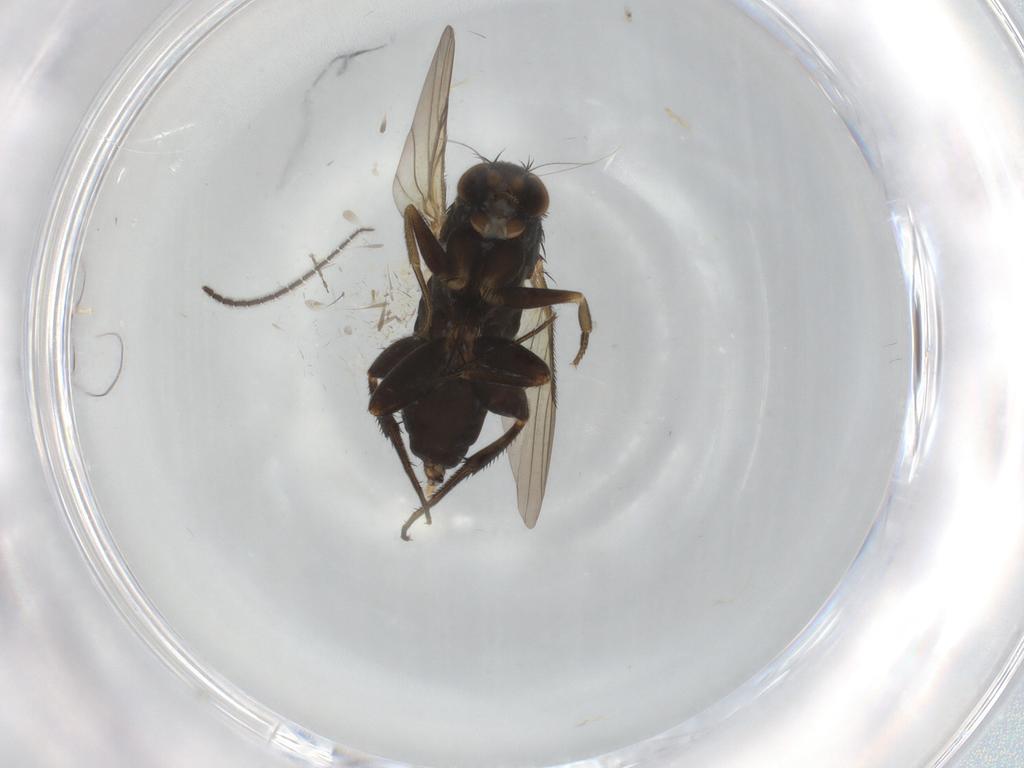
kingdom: Animalia
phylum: Arthropoda
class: Insecta
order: Diptera
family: Phoridae
